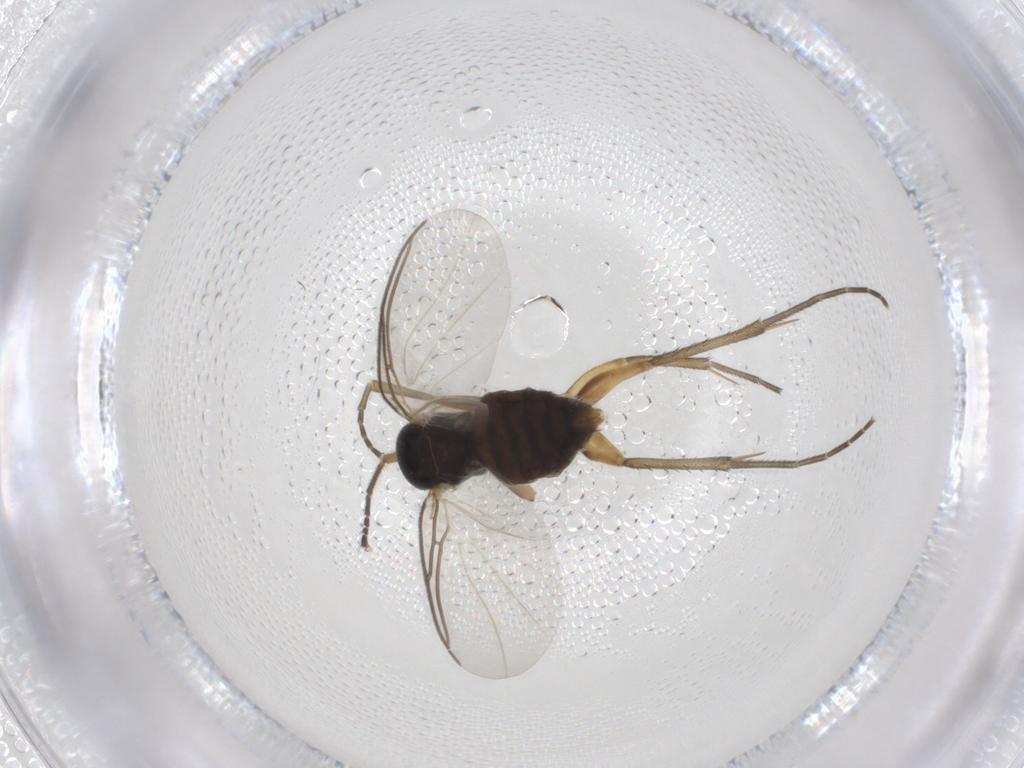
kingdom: Animalia
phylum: Arthropoda
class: Insecta
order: Diptera
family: Mycetophilidae
